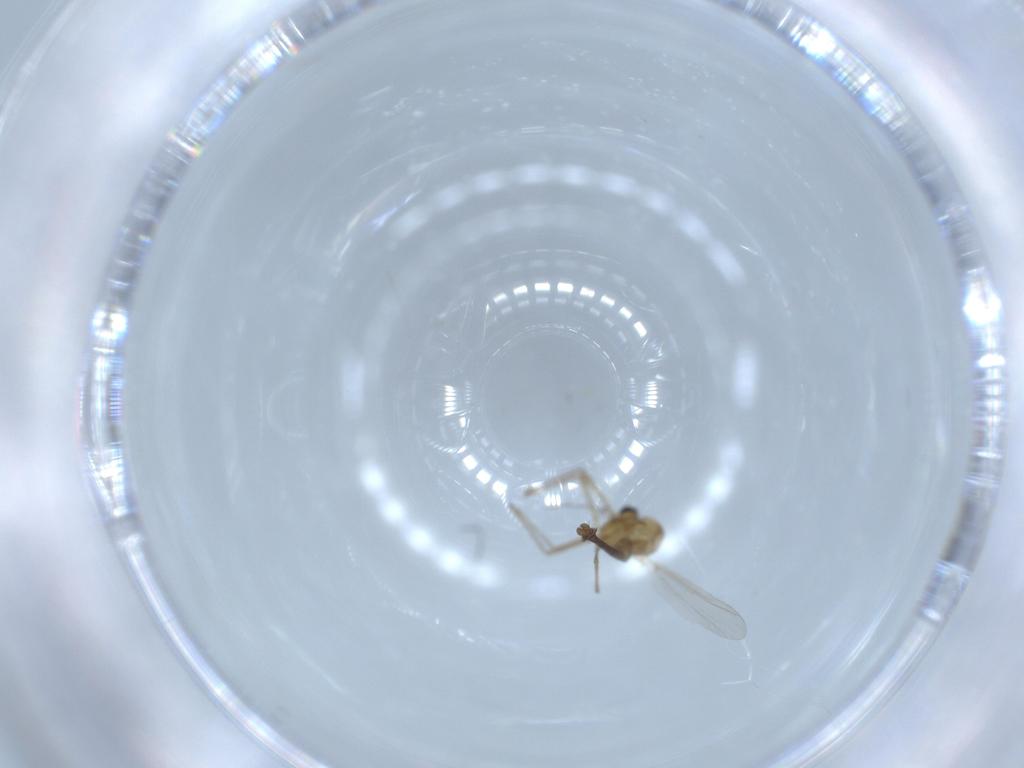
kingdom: Animalia
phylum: Arthropoda
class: Insecta
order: Diptera
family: Chironomidae
